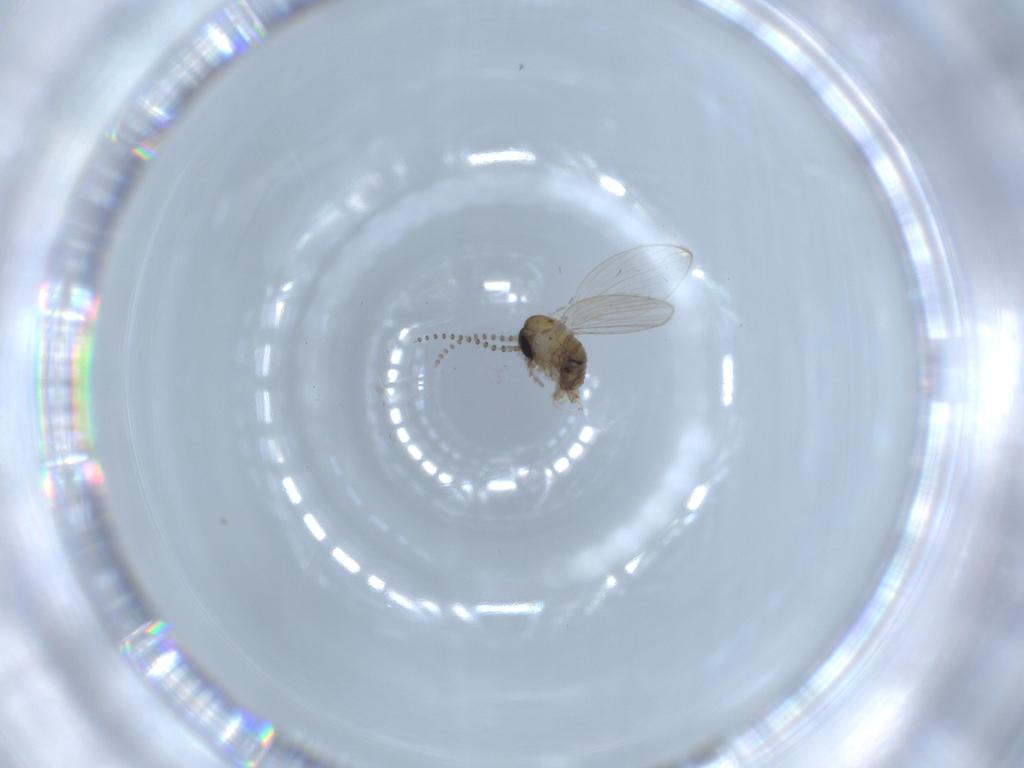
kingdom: Animalia
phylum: Arthropoda
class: Insecta
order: Diptera
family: Psychodidae
